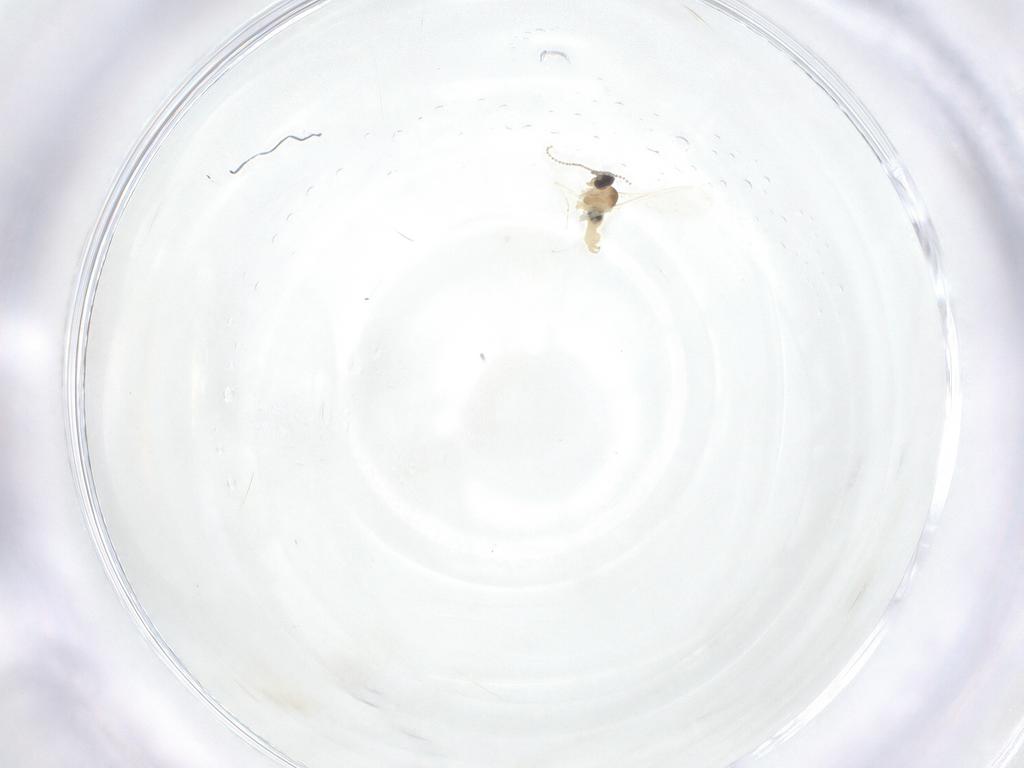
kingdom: Animalia
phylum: Arthropoda
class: Insecta
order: Diptera
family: Cecidomyiidae
